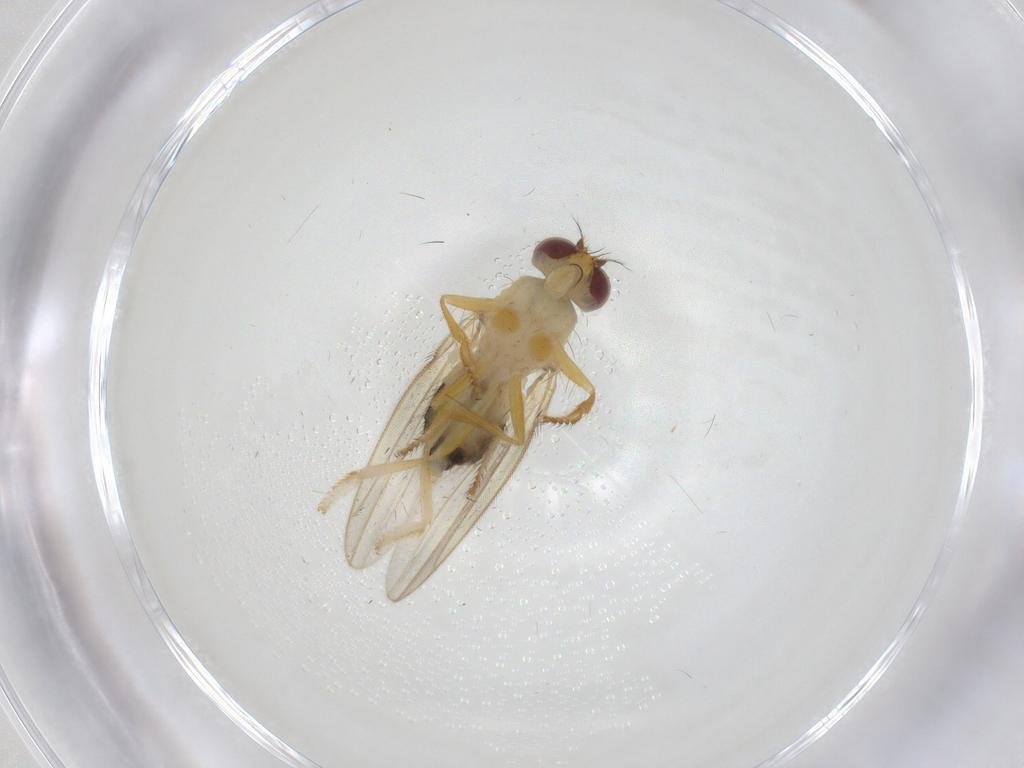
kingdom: Animalia
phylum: Arthropoda
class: Insecta
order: Diptera
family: Periscelididae
